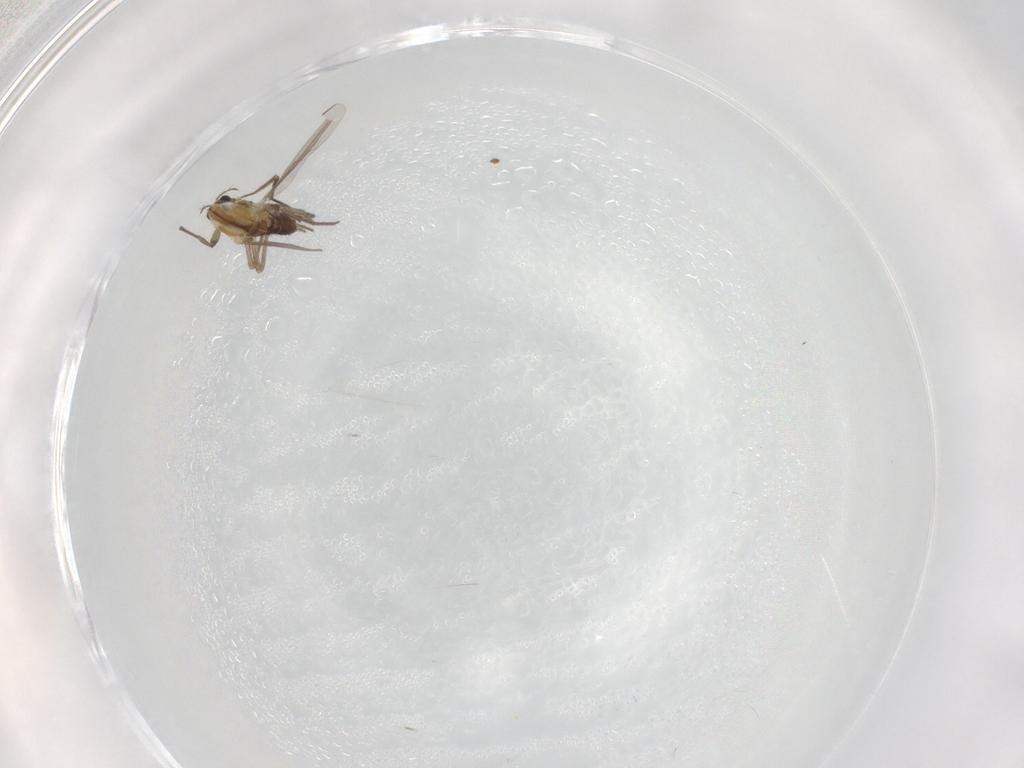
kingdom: Animalia
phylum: Arthropoda
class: Insecta
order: Diptera
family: Chironomidae
